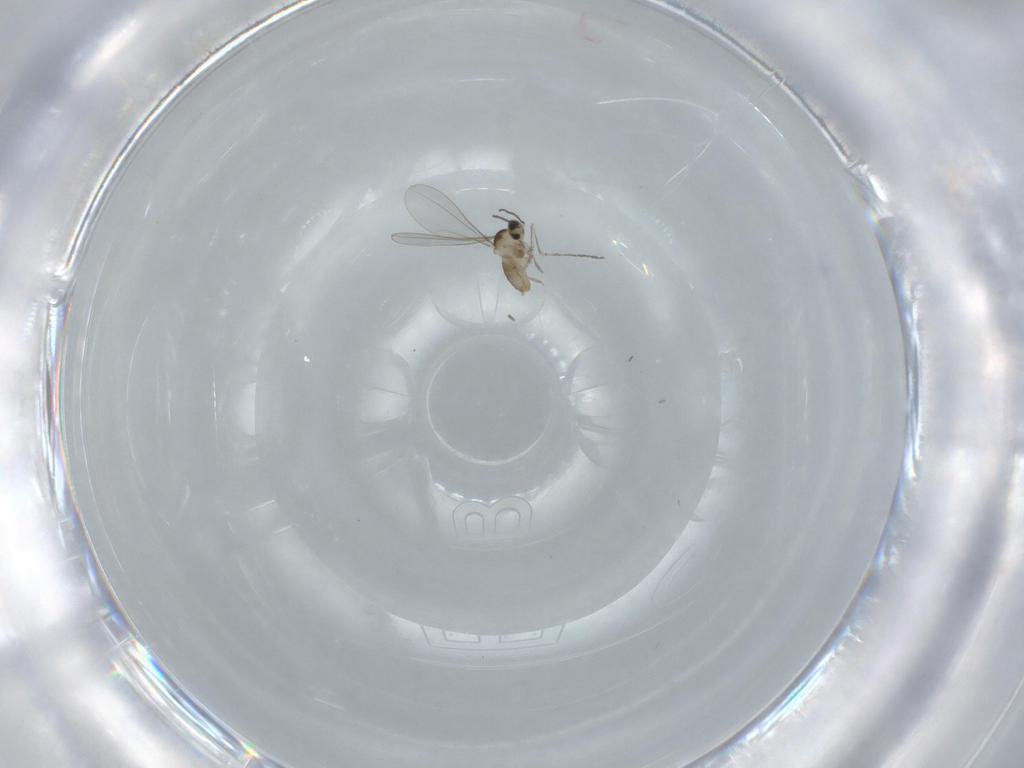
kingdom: Animalia
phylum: Arthropoda
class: Insecta
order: Diptera
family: Cecidomyiidae
